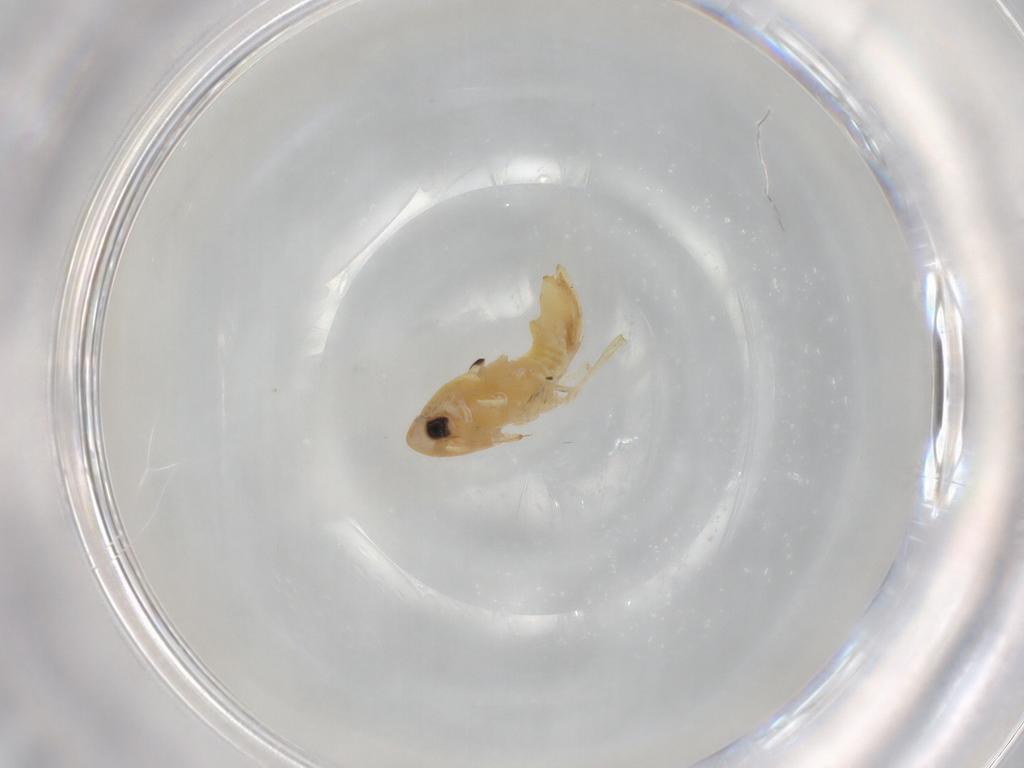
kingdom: Animalia
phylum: Arthropoda
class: Insecta
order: Hemiptera
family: Cicadellidae
